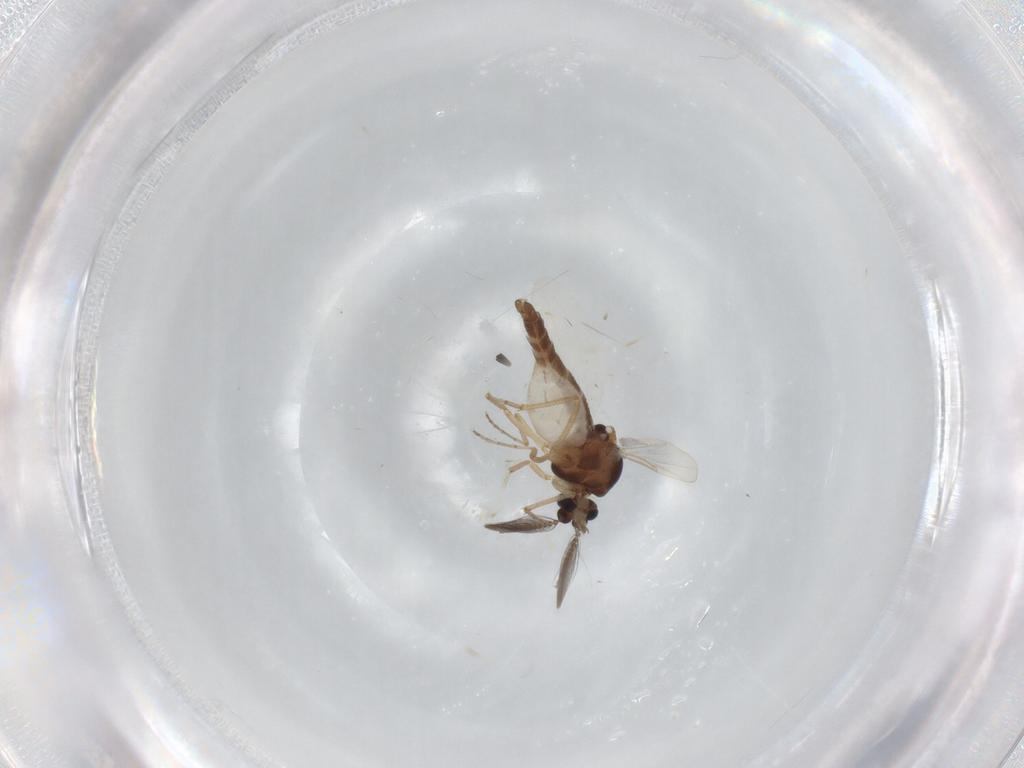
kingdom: Animalia
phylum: Arthropoda
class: Insecta
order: Diptera
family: Ceratopogonidae
